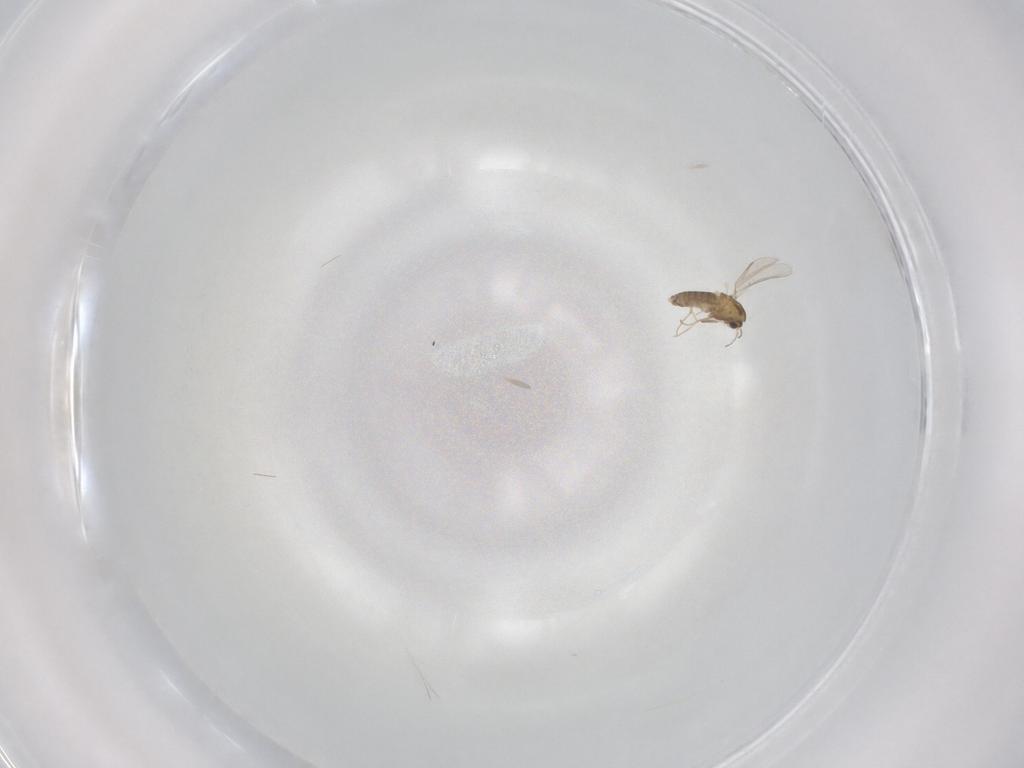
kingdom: Animalia
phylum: Arthropoda
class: Insecta
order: Diptera
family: Chironomidae
